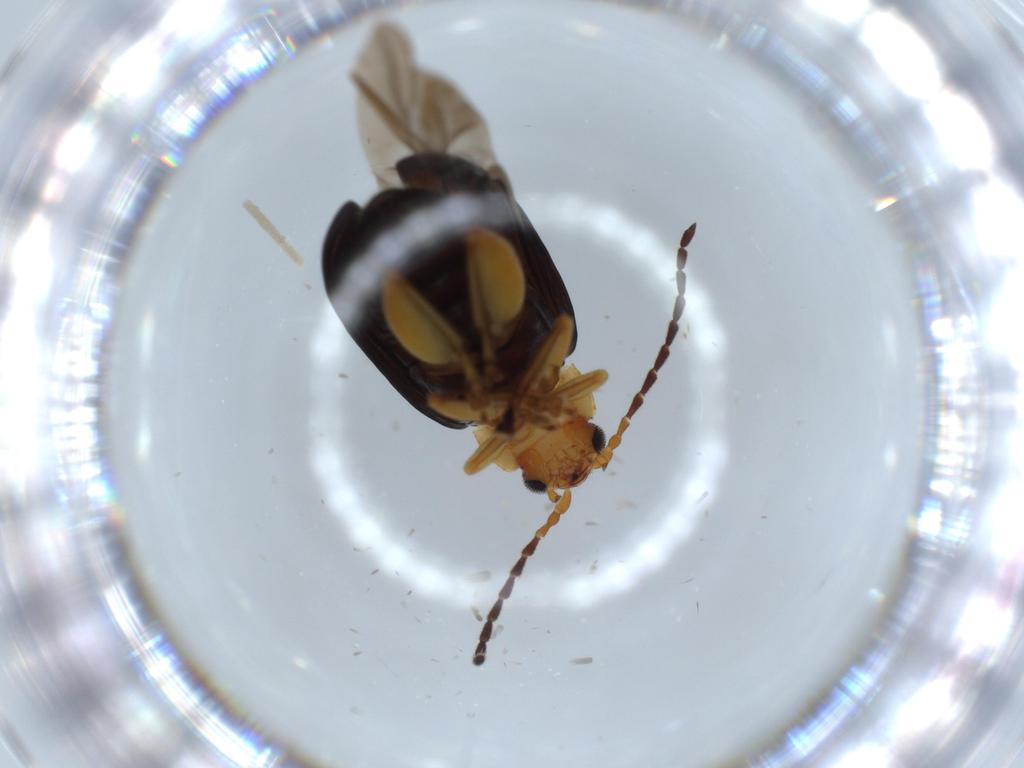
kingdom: Animalia
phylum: Arthropoda
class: Insecta
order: Coleoptera
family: Chrysomelidae
